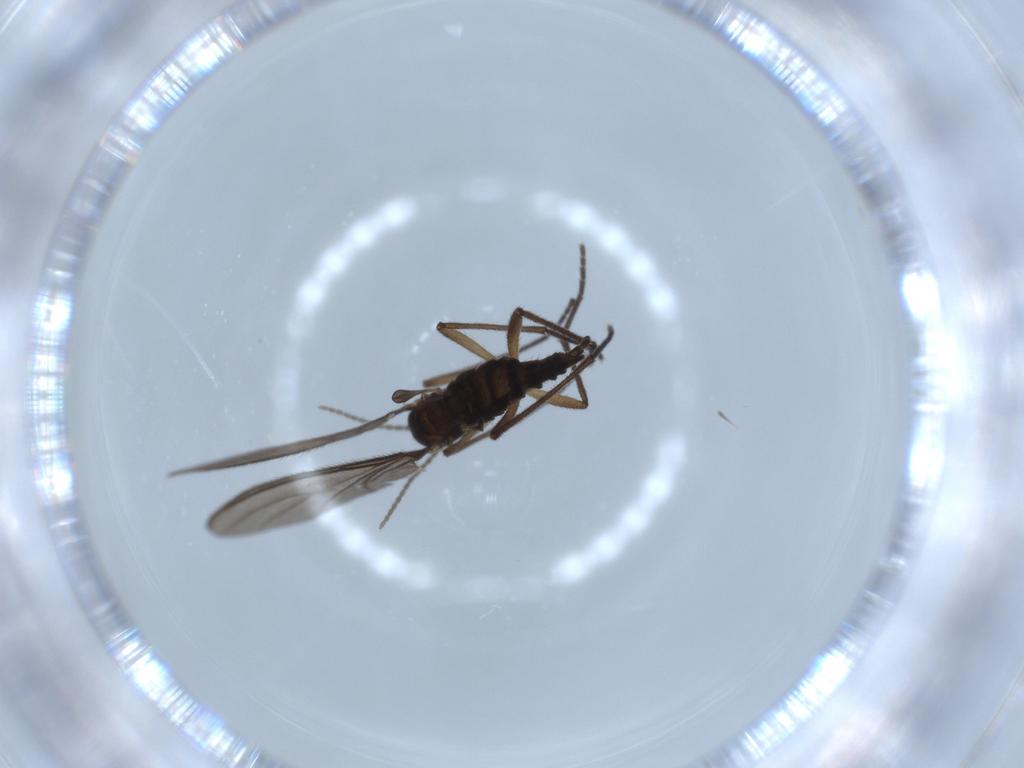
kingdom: Animalia
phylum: Arthropoda
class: Insecta
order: Diptera
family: Sciaridae
